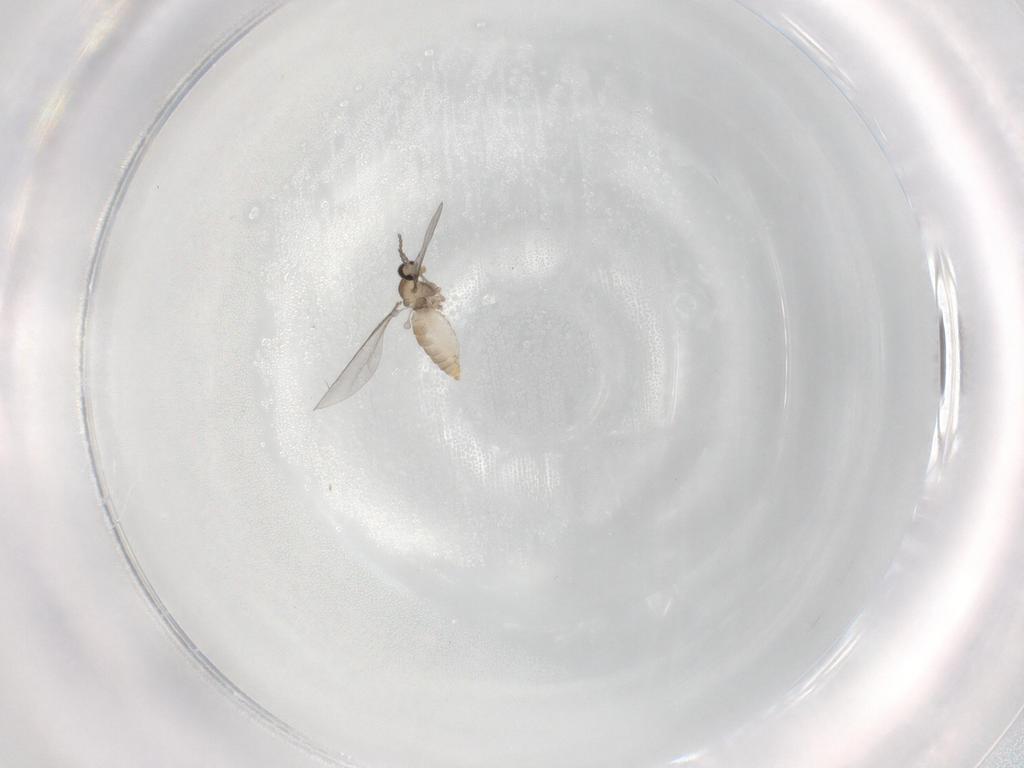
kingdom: Animalia
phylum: Arthropoda
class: Insecta
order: Diptera
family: Cecidomyiidae
